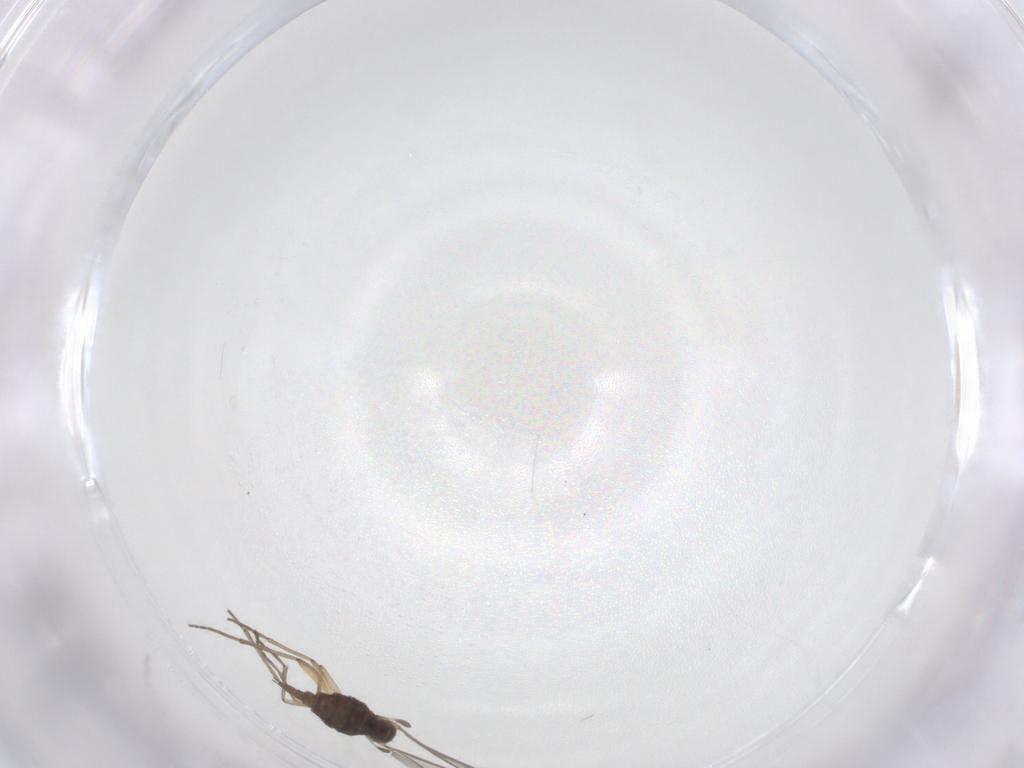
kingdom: Animalia
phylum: Arthropoda
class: Insecta
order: Diptera
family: Sciaridae
